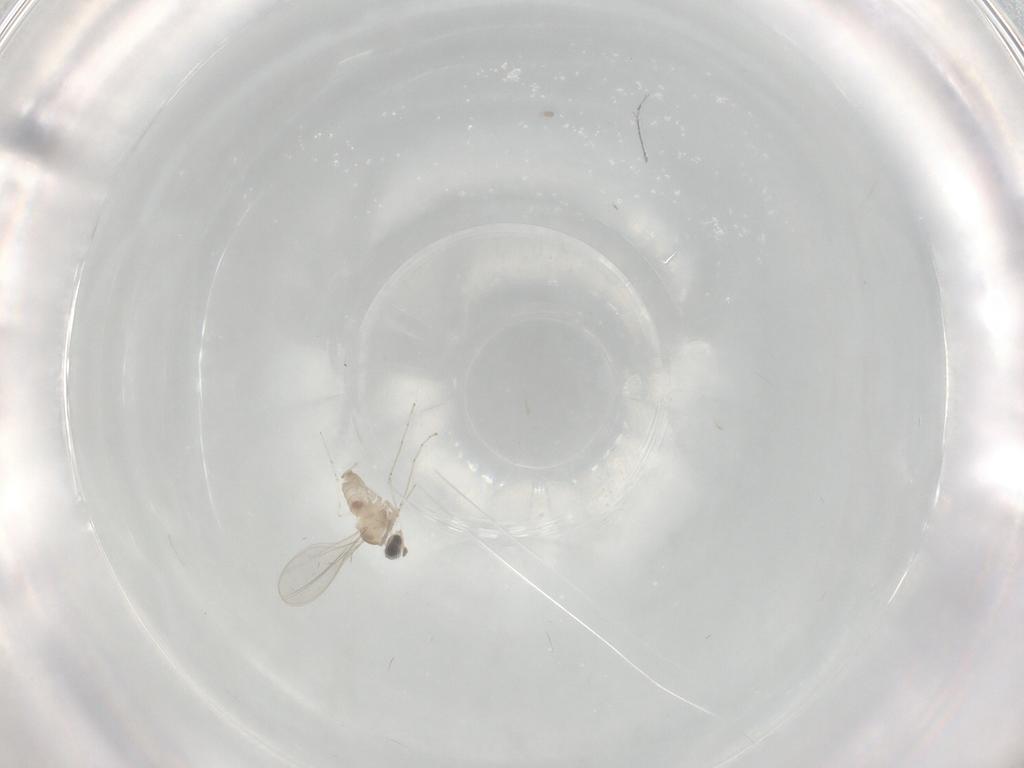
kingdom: Animalia
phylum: Arthropoda
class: Insecta
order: Diptera
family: Cecidomyiidae
